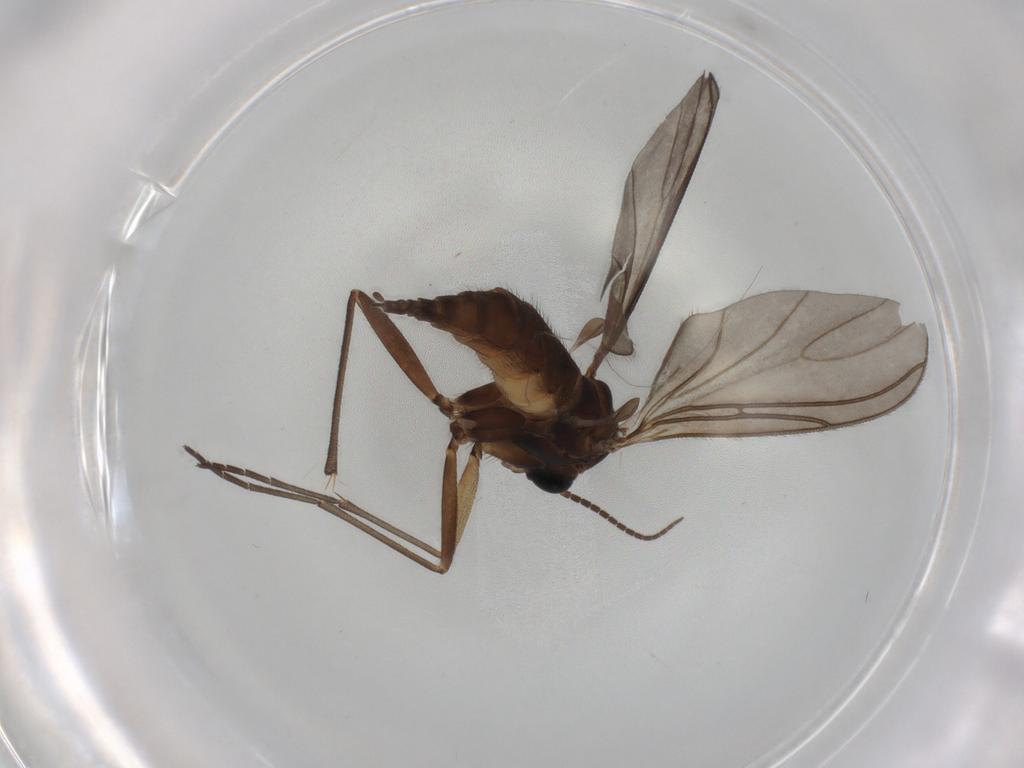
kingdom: Animalia
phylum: Arthropoda
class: Insecta
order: Diptera
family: Sciaridae
